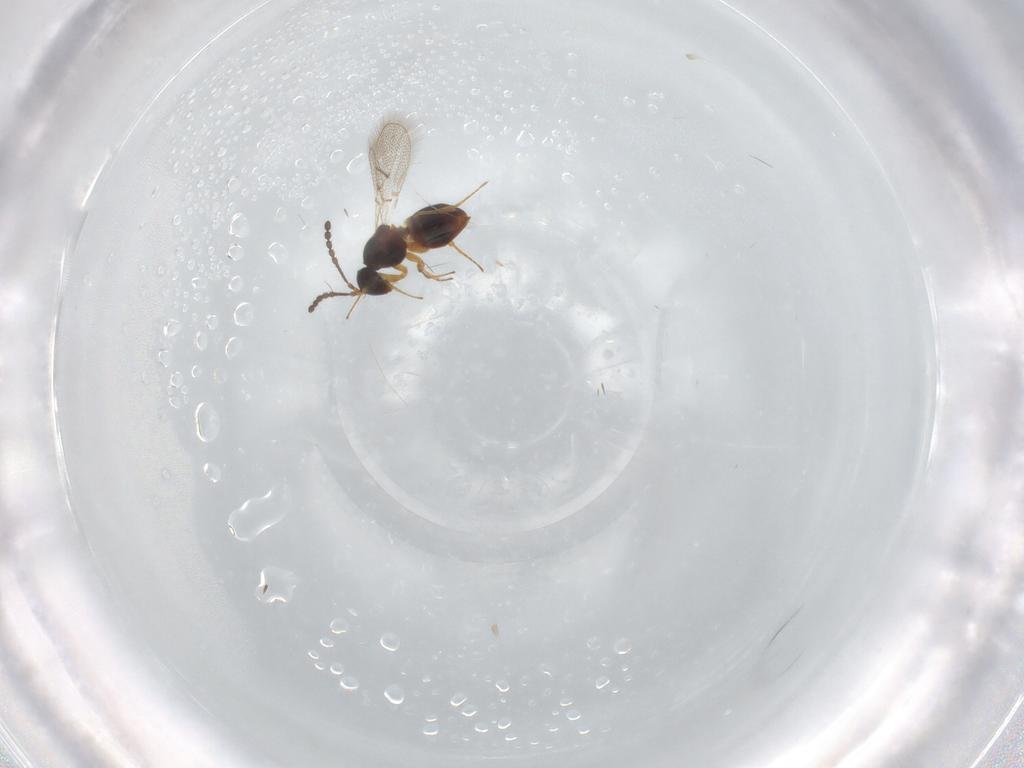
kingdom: Animalia
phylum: Arthropoda
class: Insecta
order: Hymenoptera
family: Figitidae
